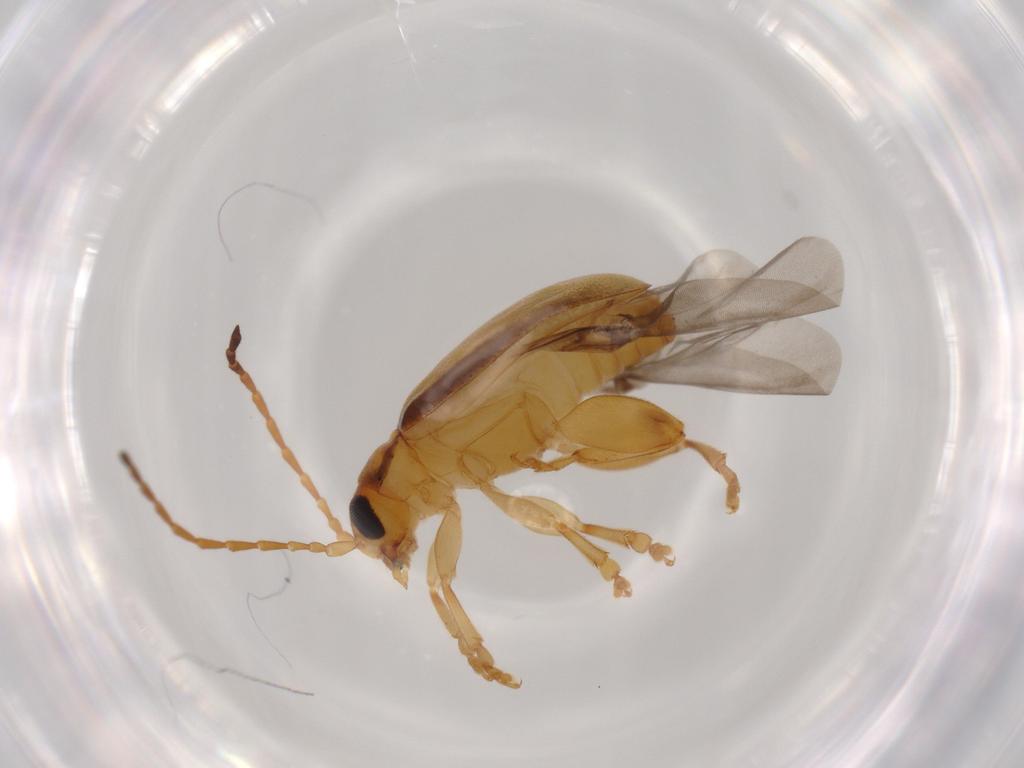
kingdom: Animalia
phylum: Arthropoda
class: Insecta
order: Coleoptera
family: Chrysomelidae
